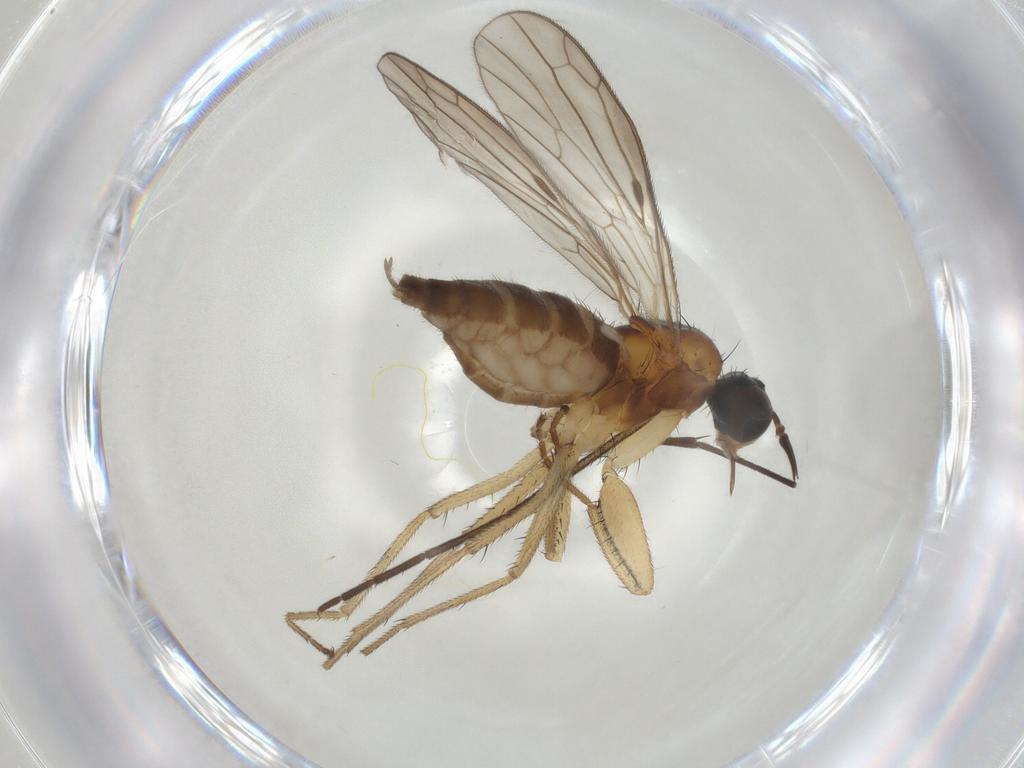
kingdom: Animalia
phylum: Arthropoda
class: Insecta
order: Diptera
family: Cecidomyiidae
